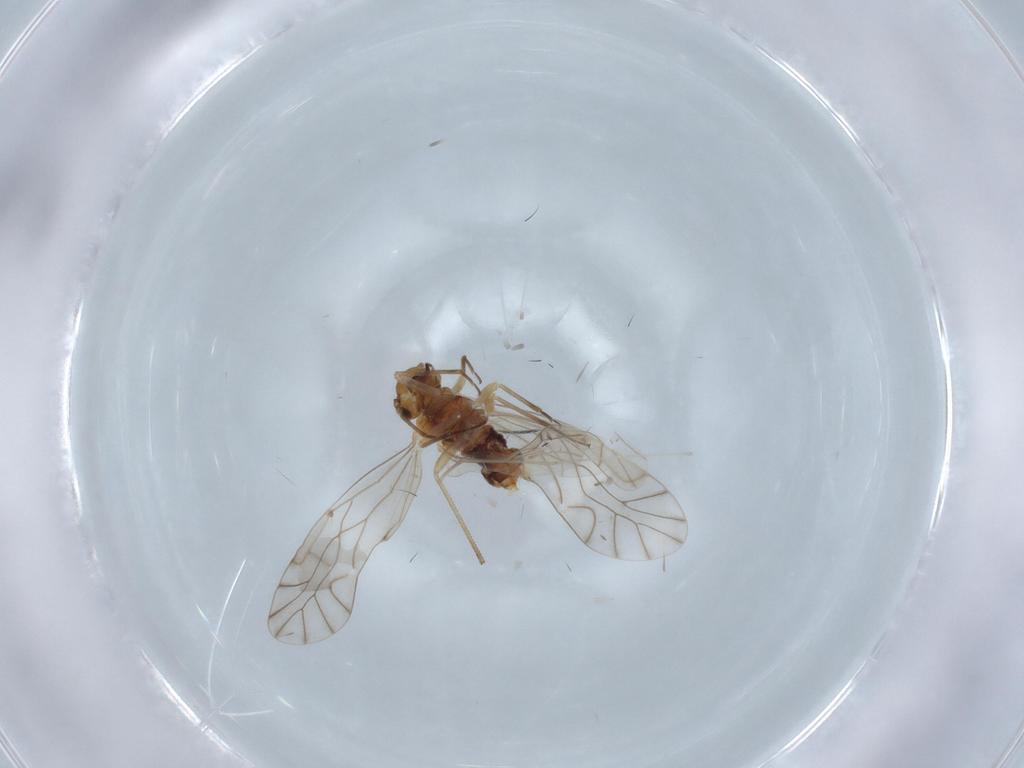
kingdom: Animalia
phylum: Arthropoda
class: Insecta
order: Psocodea
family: Lachesillidae
